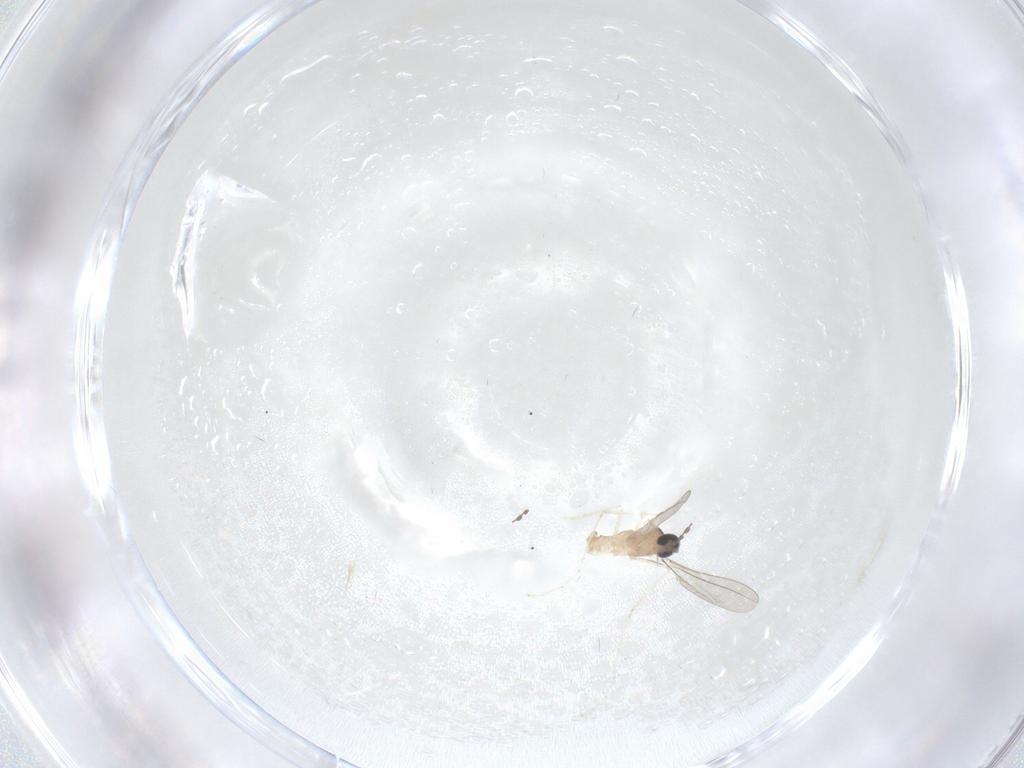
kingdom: Animalia
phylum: Arthropoda
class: Insecta
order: Diptera
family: Cecidomyiidae
